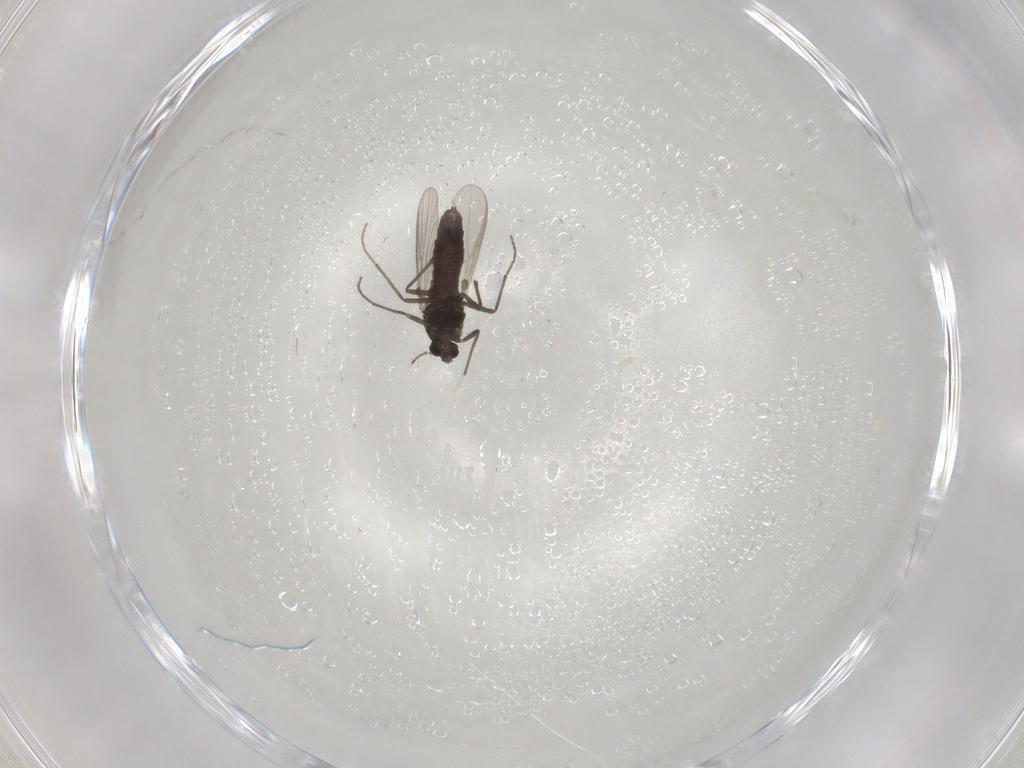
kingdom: Animalia
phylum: Arthropoda
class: Insecta
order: Diptera
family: Chironomidae
